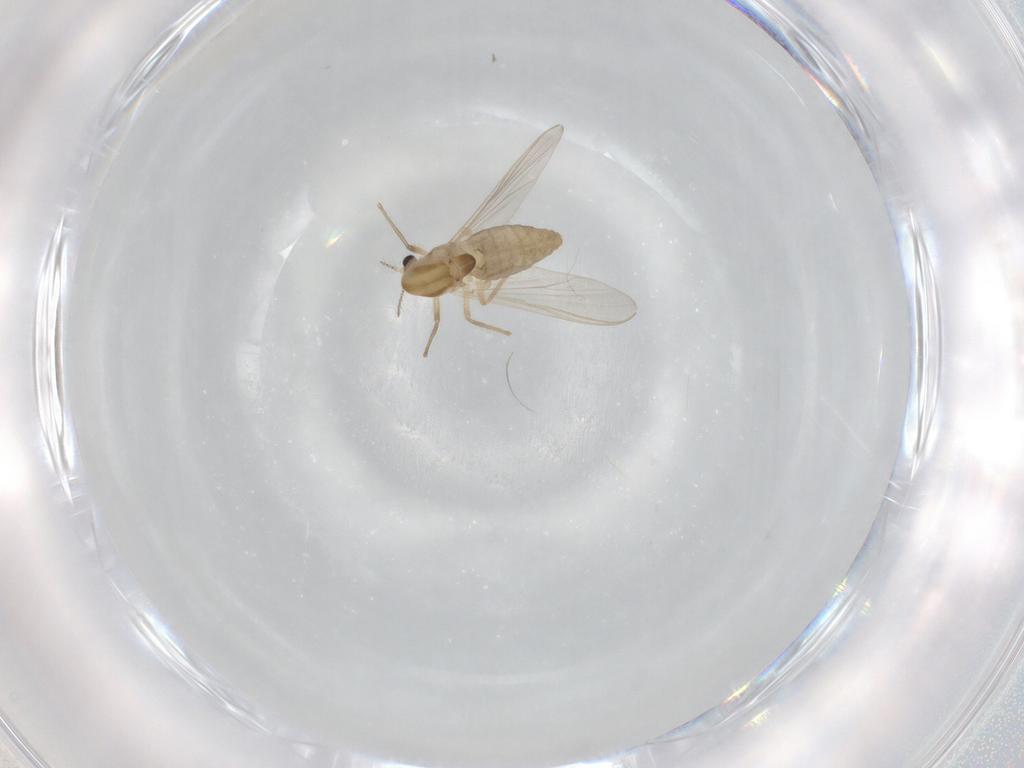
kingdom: Animalia
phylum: Arthropoda
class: Insecta
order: Diptera
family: Chironomidae
